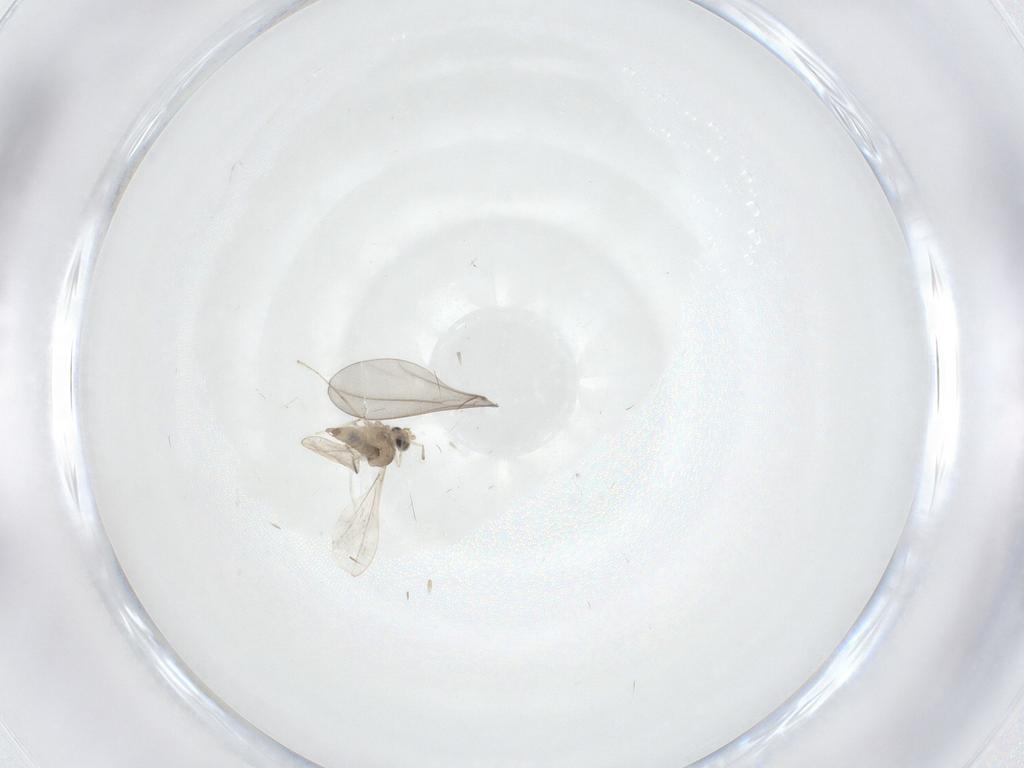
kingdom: Animalia
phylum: Arthropoda
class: Insecta
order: Diptera
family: Cecidomyiidae
